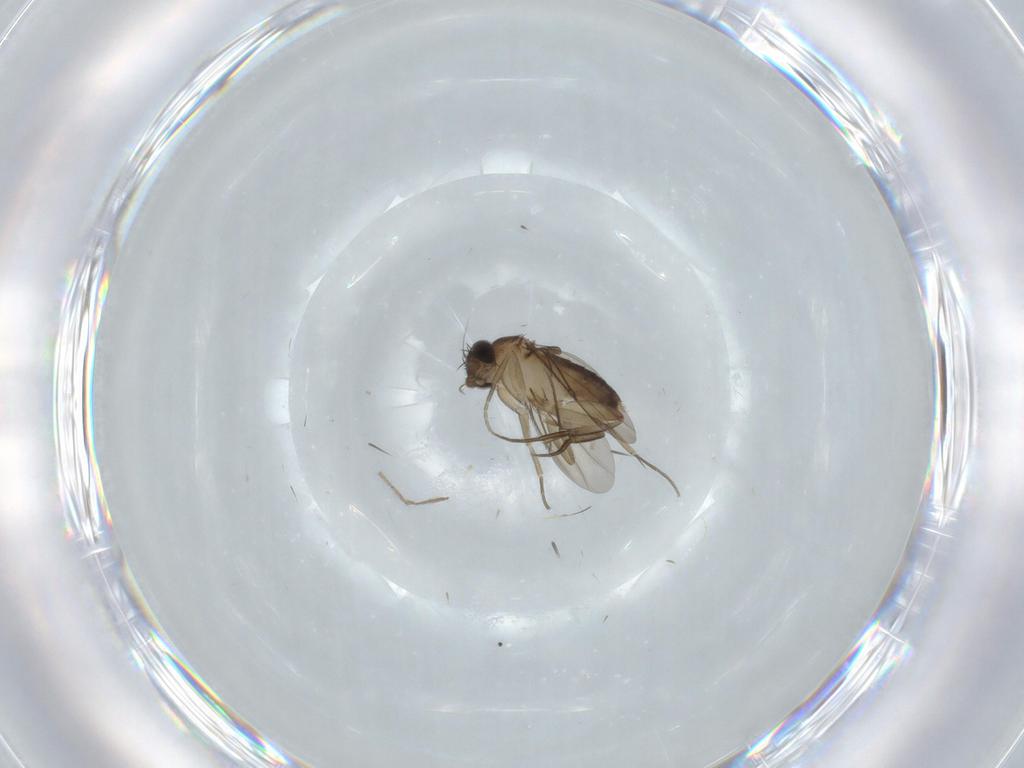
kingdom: Animalia
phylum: Arthropoda
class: Insecta
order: Diptera
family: Phoridae
